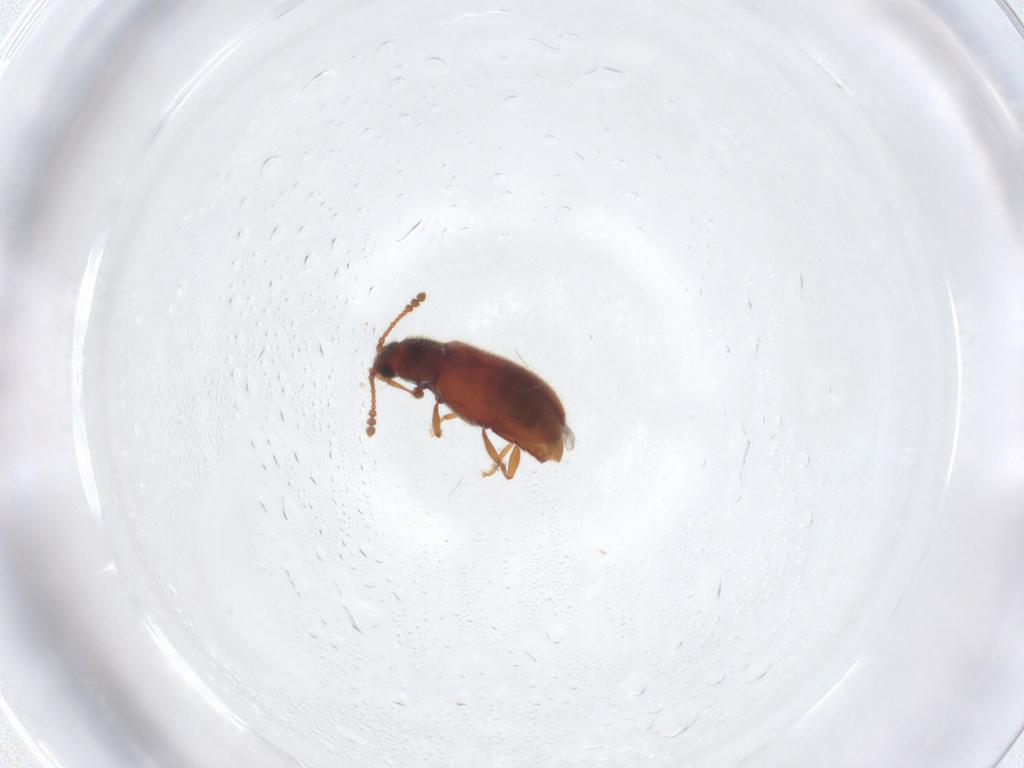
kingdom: Animalia
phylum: Arthropoda
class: Insecta
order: Coleoptera
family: Cryptophagidae
